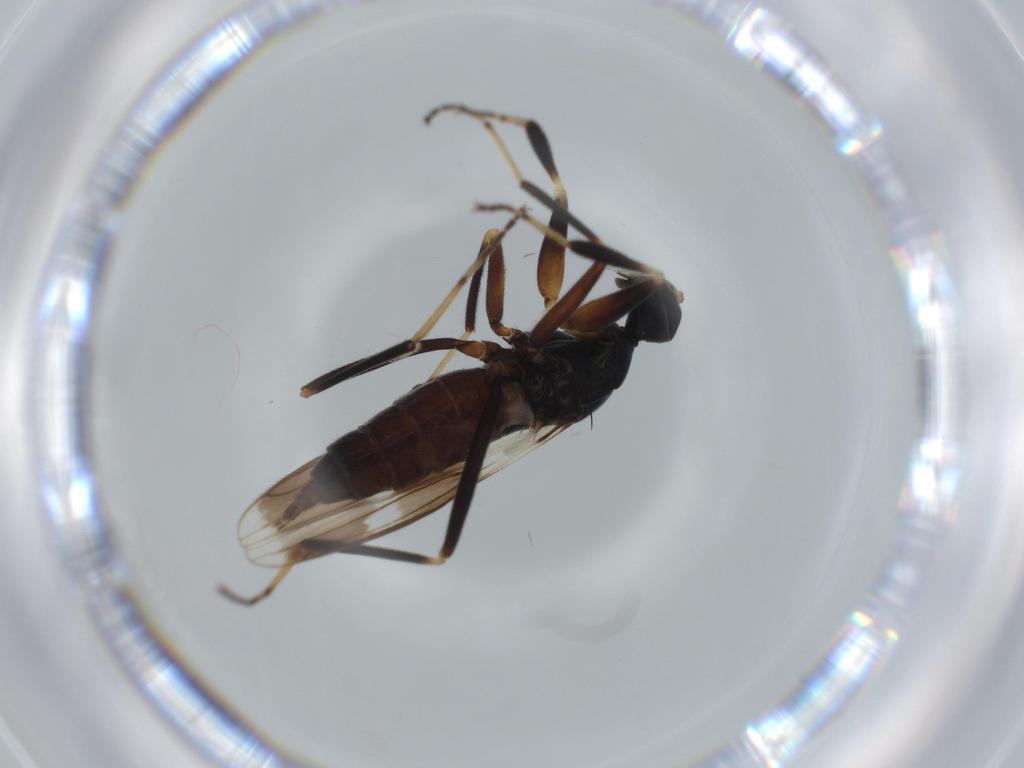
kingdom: Animalia
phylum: Arthropoda
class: Insecta
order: Diptera
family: Hybotidae
